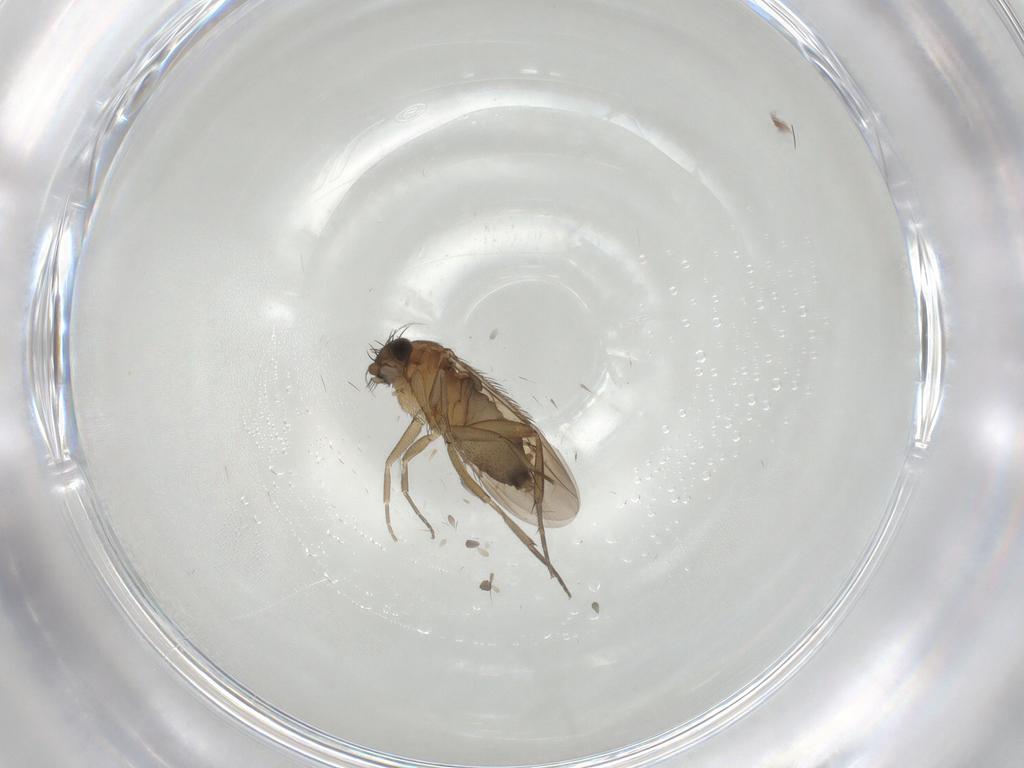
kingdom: Animalia
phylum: Arthropoda
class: Insecta
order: Diptera
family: Phoridae
